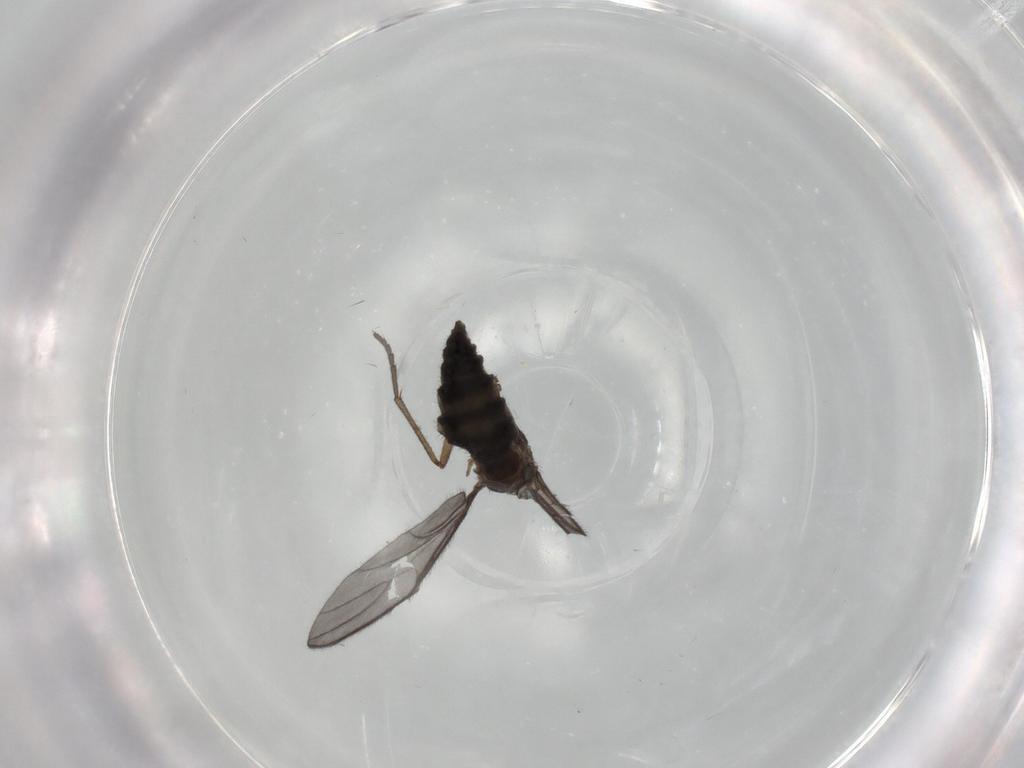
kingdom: Animalia
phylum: Arthropoda
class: Insecta
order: Diptera
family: Sciaridae
